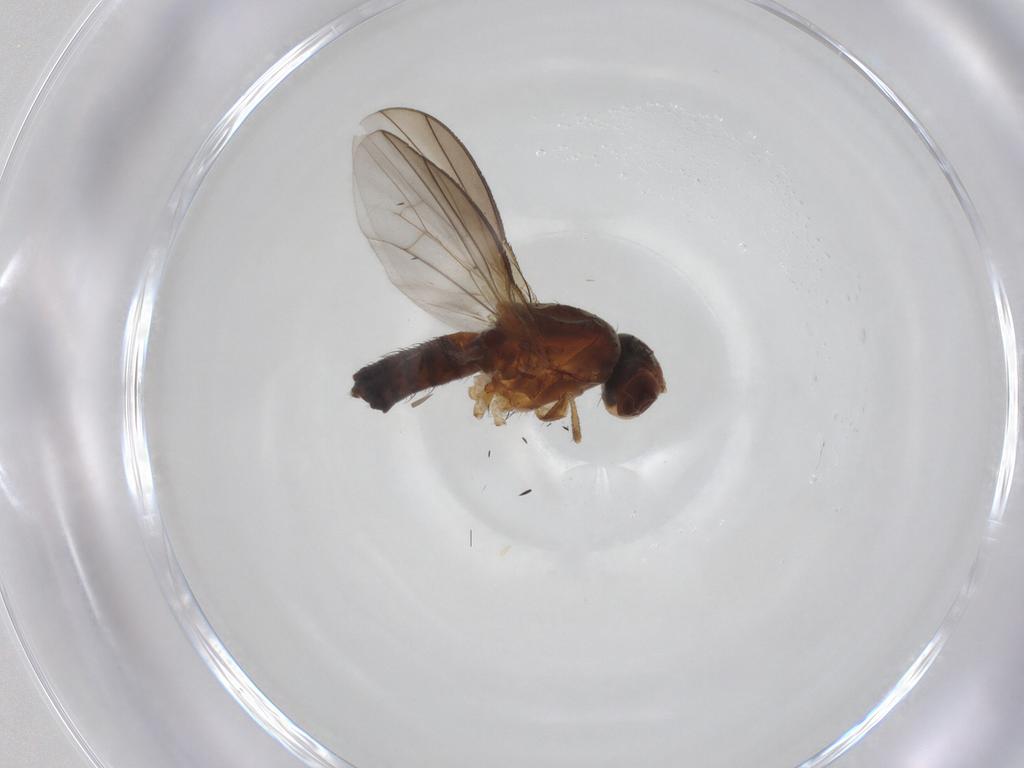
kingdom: Animalia
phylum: Arthropoda
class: Insecta
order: Diptera
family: Heleomyzidae
